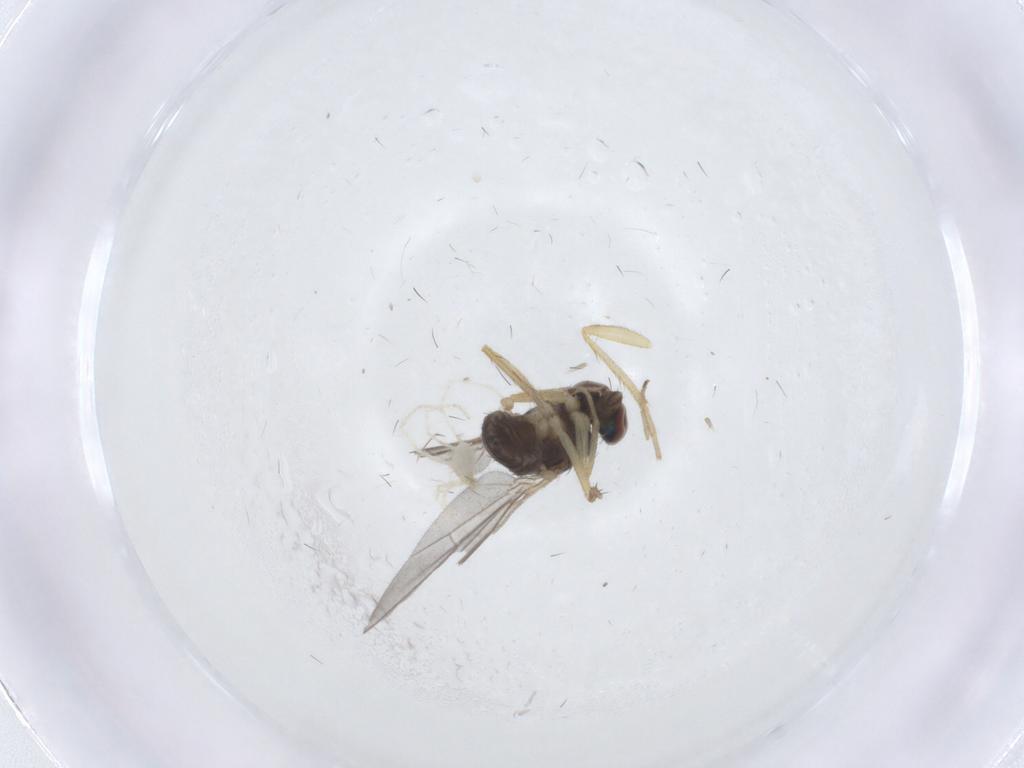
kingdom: Animalia
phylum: Arthropoda
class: Insecta
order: Diptera
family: Dolichopodidae
